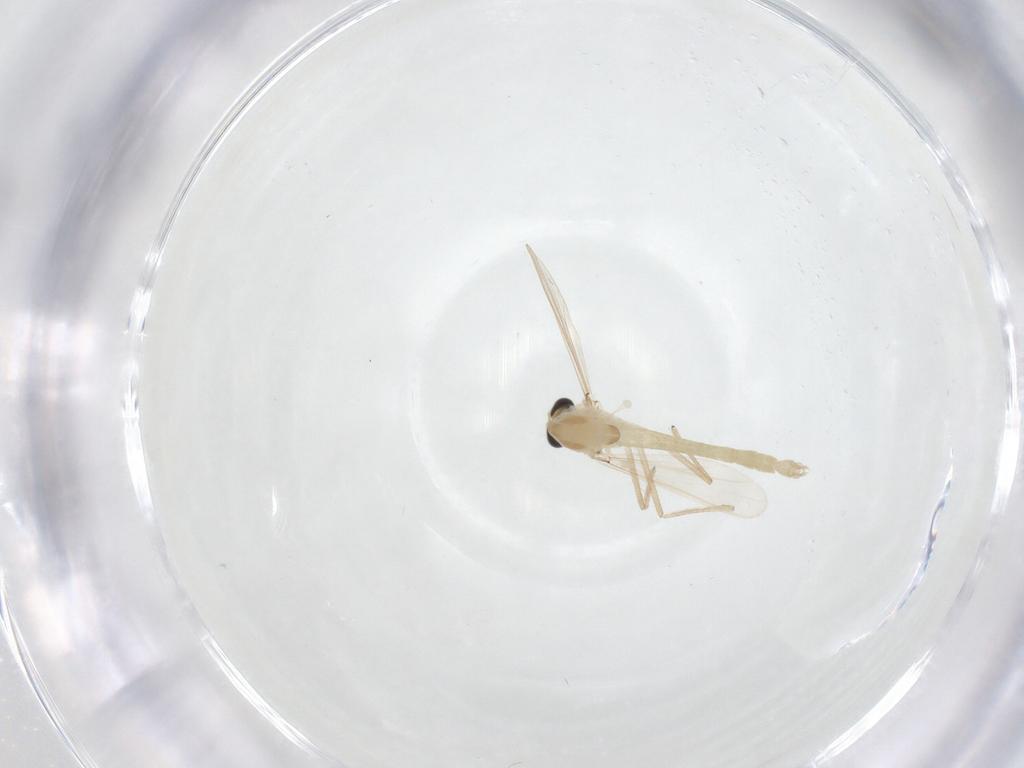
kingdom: Animalia
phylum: Arthropoda
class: Insecta
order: Diptera
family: Chironomidae
